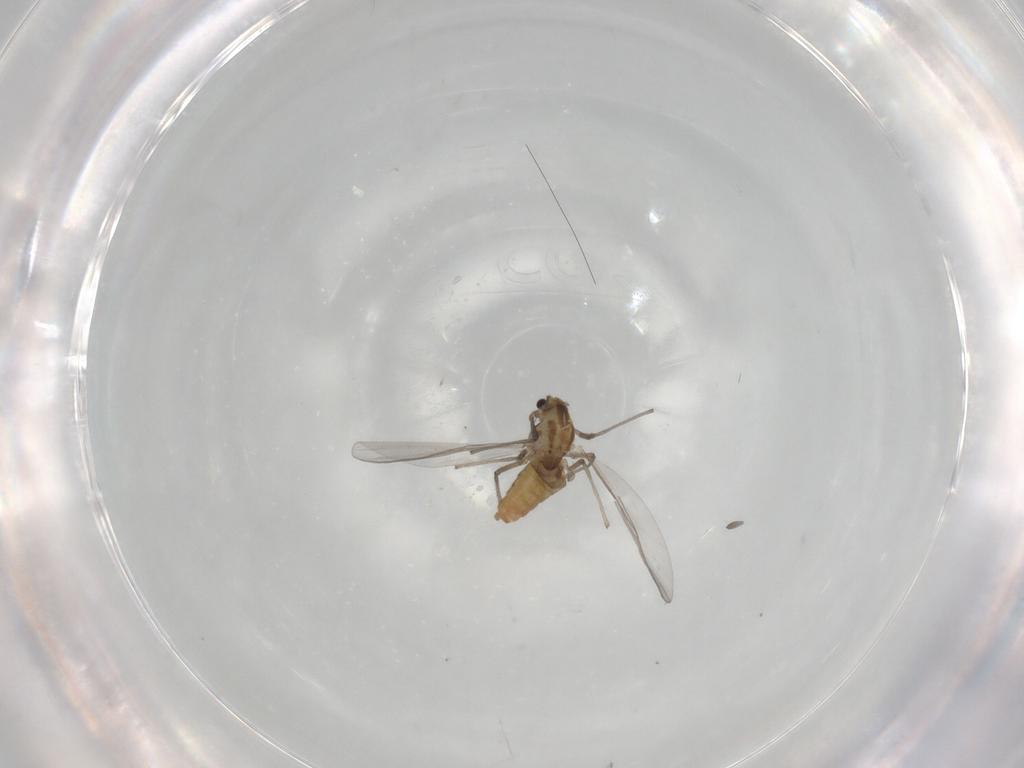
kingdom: Animalia
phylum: Arthropoda
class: Insecta
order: Diptera
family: Chironomidae
